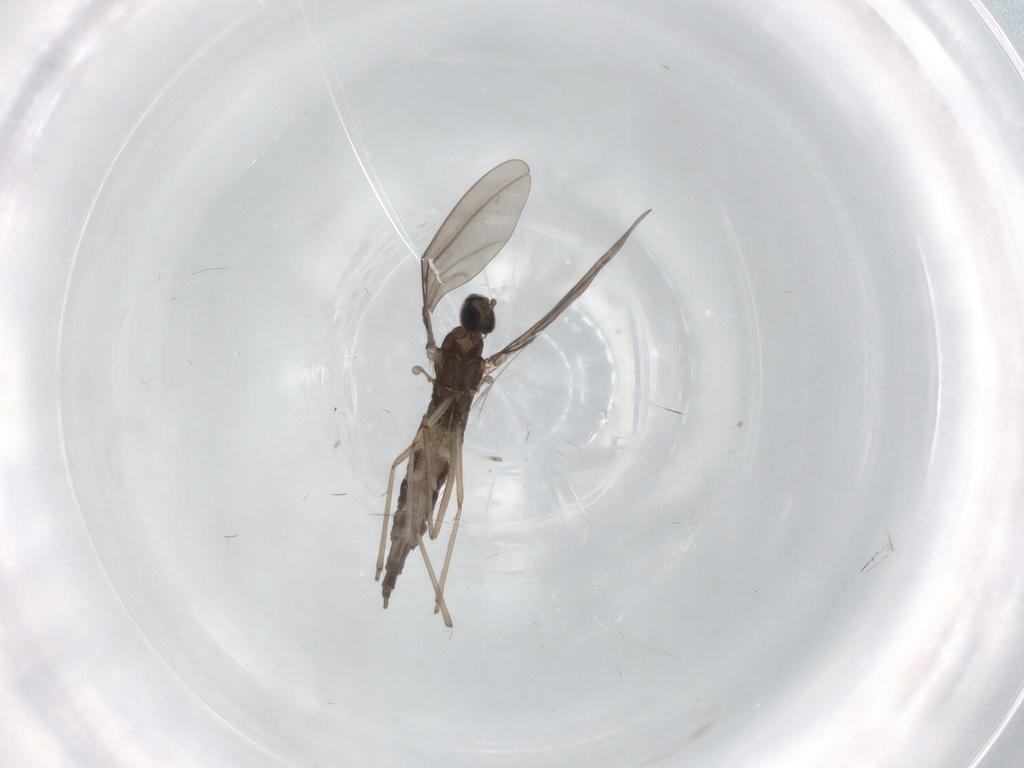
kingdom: Animalia
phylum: Arthropoda
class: Insecta
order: Diptera
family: Cecidomyiidae
